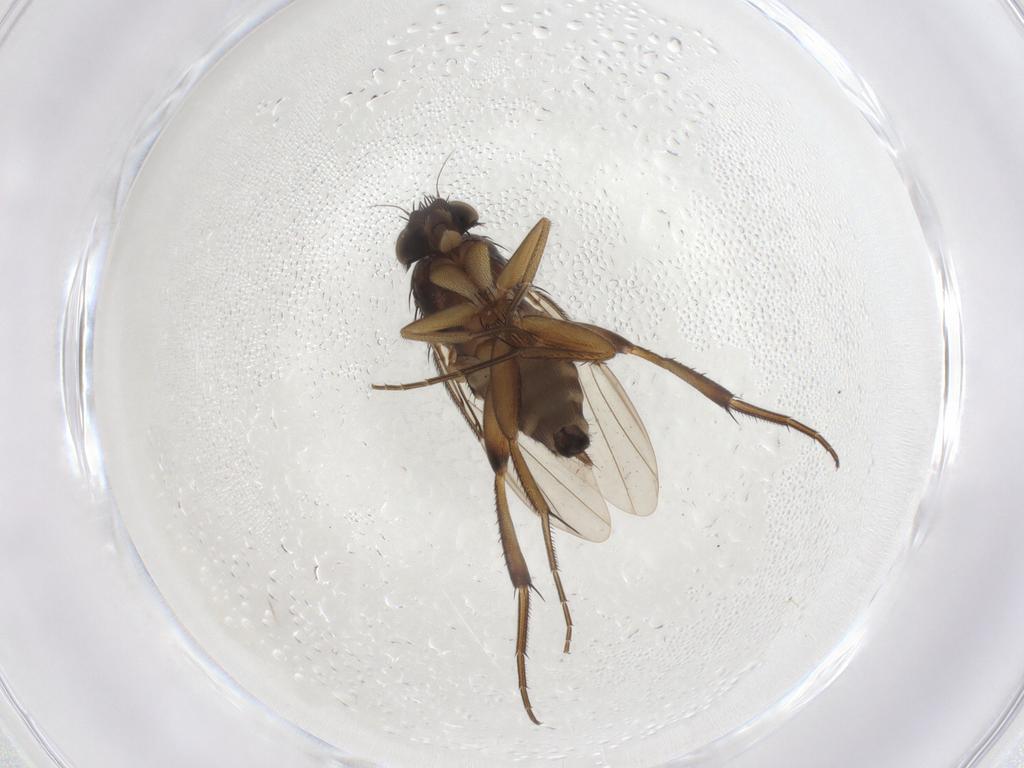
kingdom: Animalia
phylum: Arthropoda
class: Insecta
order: Diptera
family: Phoridae
